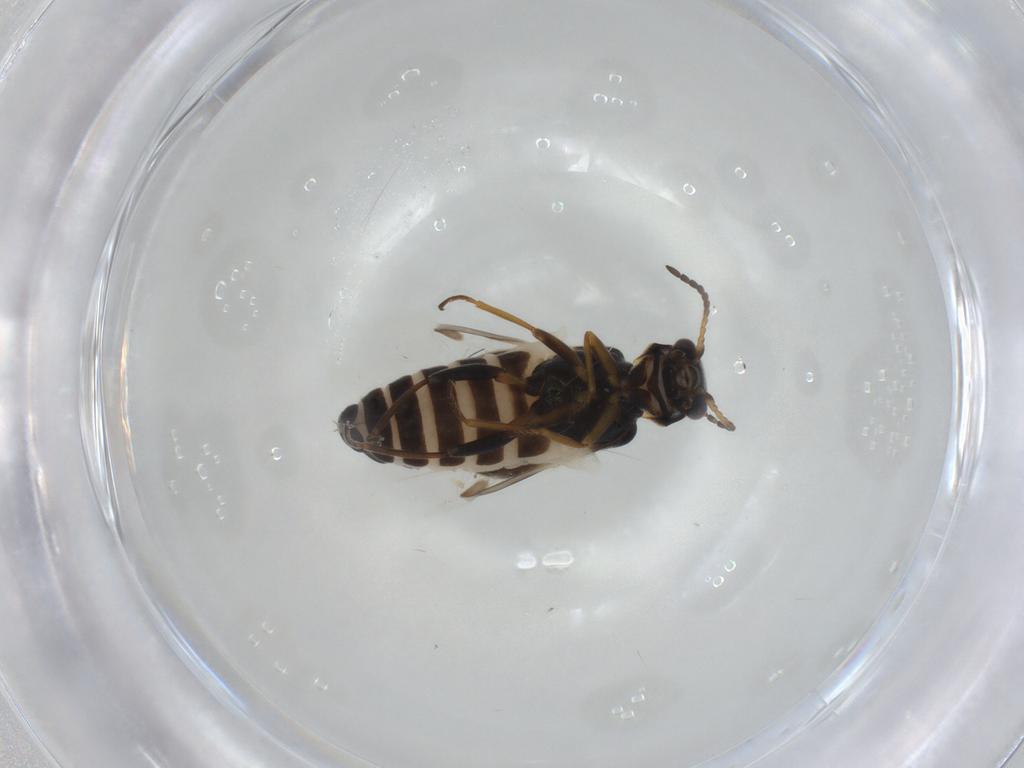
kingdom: Animalia
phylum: Arthropoda
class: Insecta
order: Coleoptera
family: Melyridae
